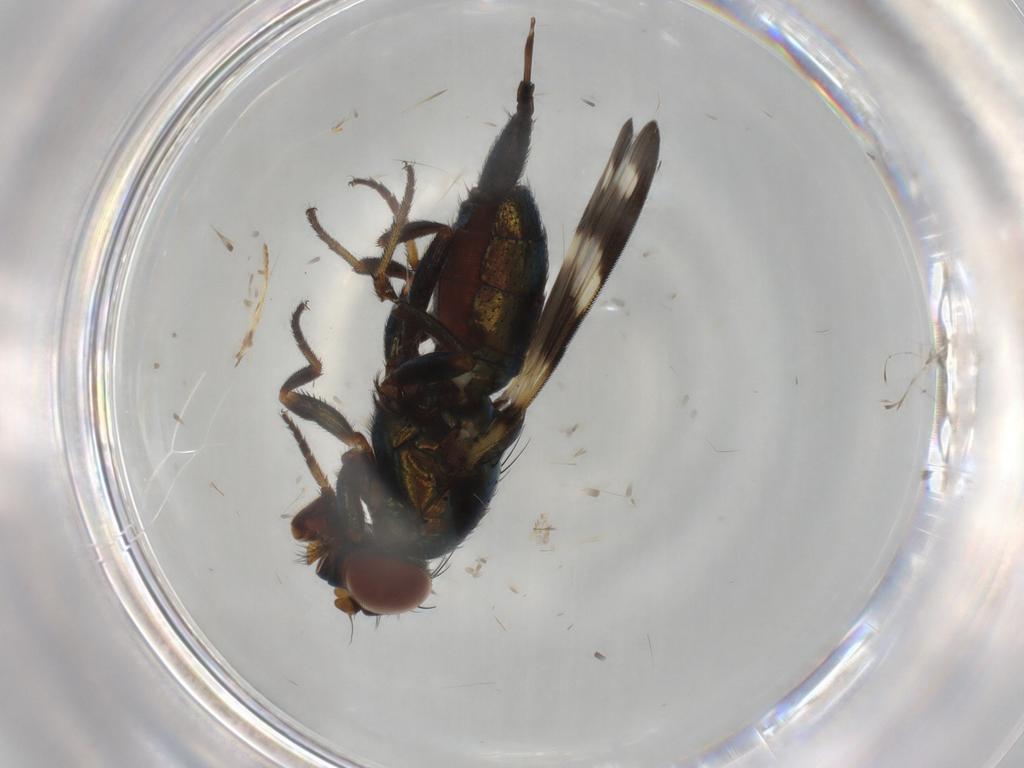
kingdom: Animalia
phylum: Arthropoda
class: Insecta
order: Diptera
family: Ulidiidae
